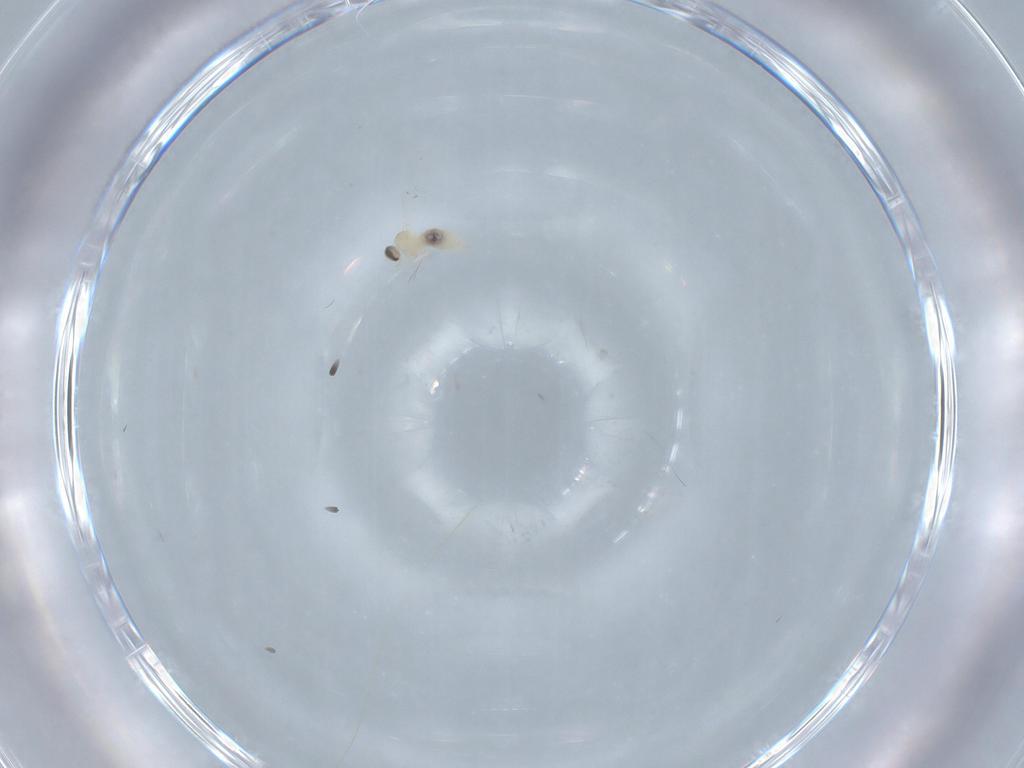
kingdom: Animalia
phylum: Arthropoda
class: Insecta
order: Diptera
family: Cecidomyiidae
